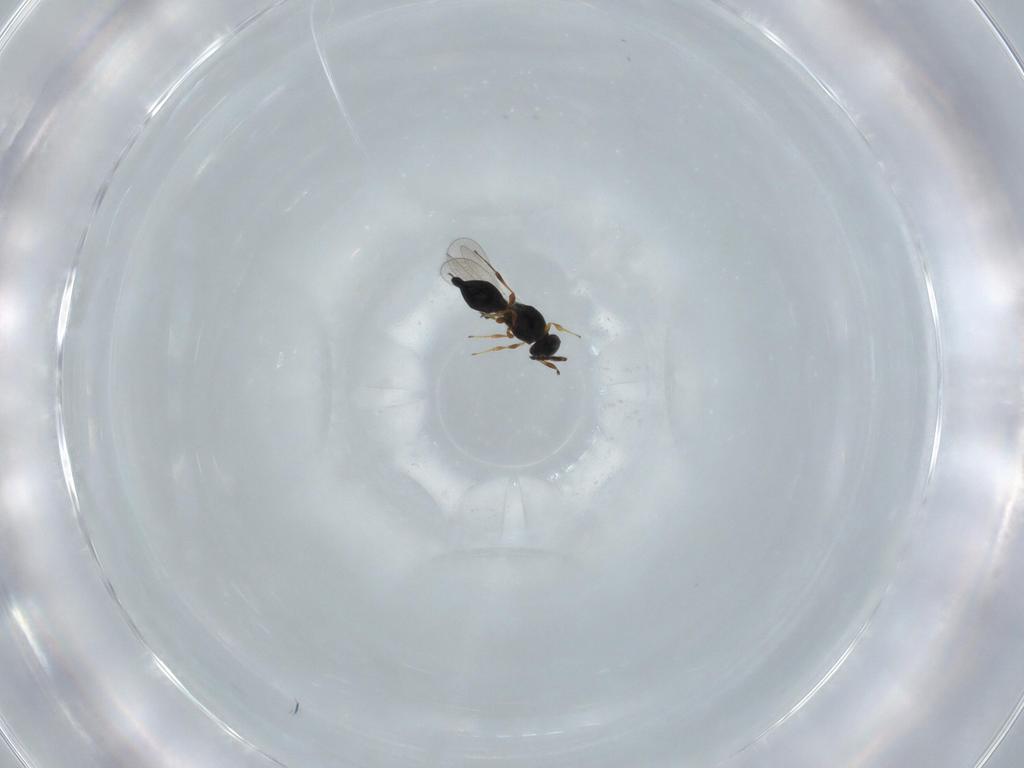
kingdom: Animalia
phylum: Arthropoda
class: Insecta
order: Hymenoptera
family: Platygastridae
